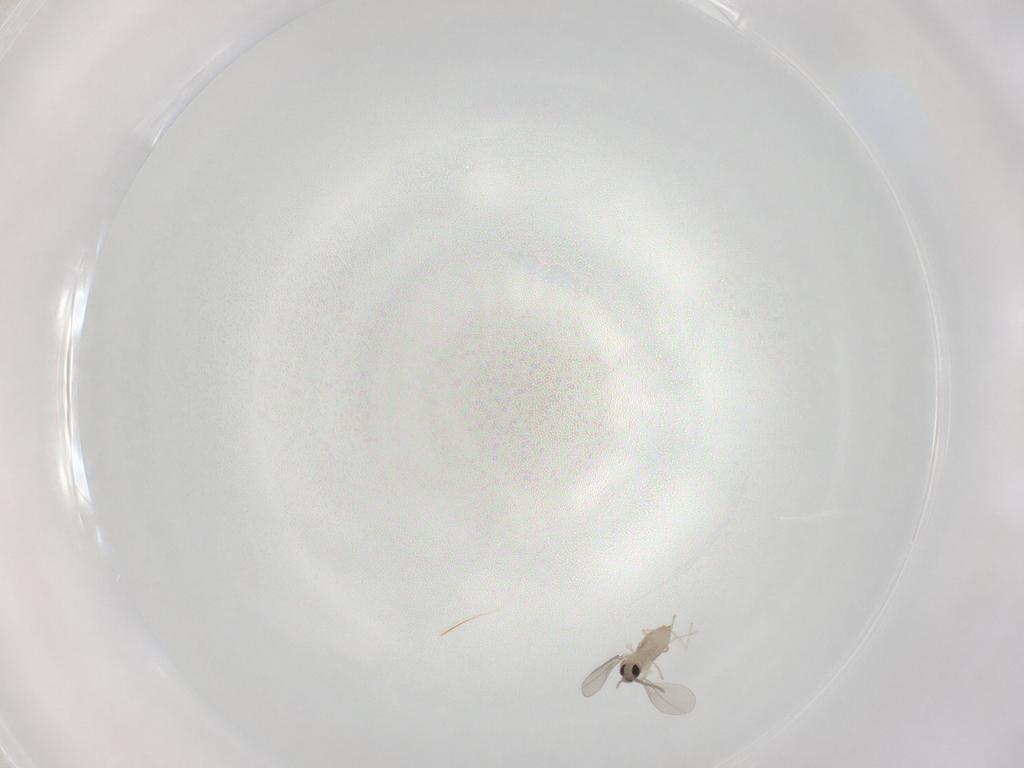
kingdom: Animalia
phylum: Arthropoda
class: Insecta
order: Diptera
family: Cecidomyiidae
